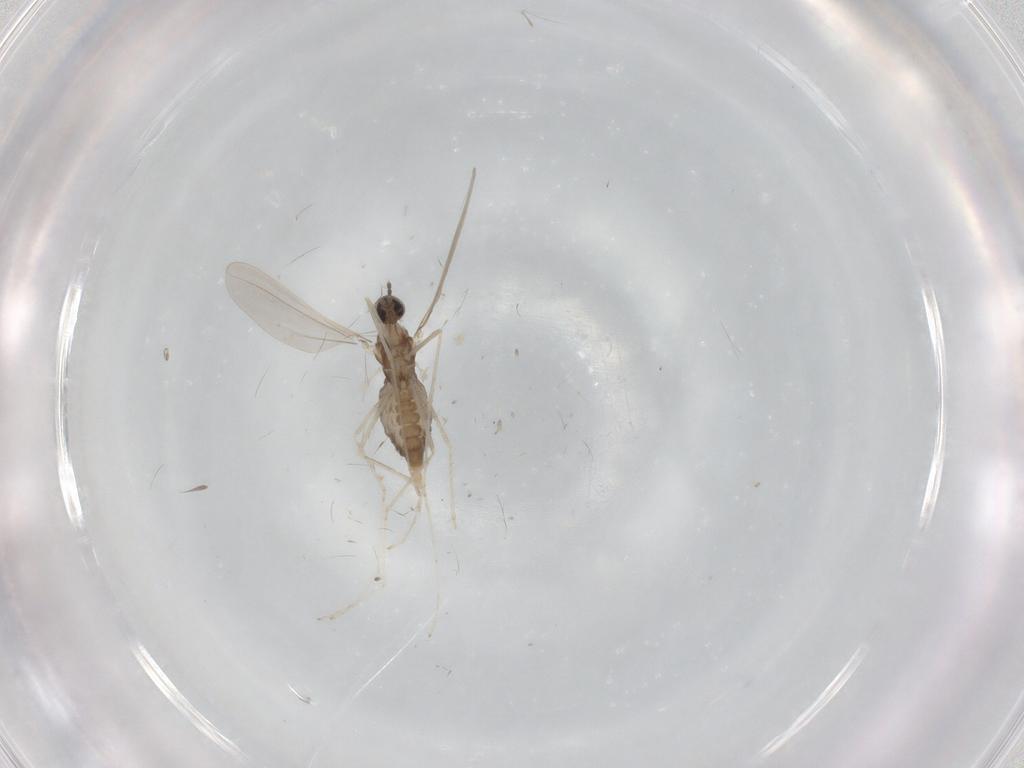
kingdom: Animalia
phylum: Arthropoda
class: Insecta
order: Diptera
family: Cecidomyiidae
